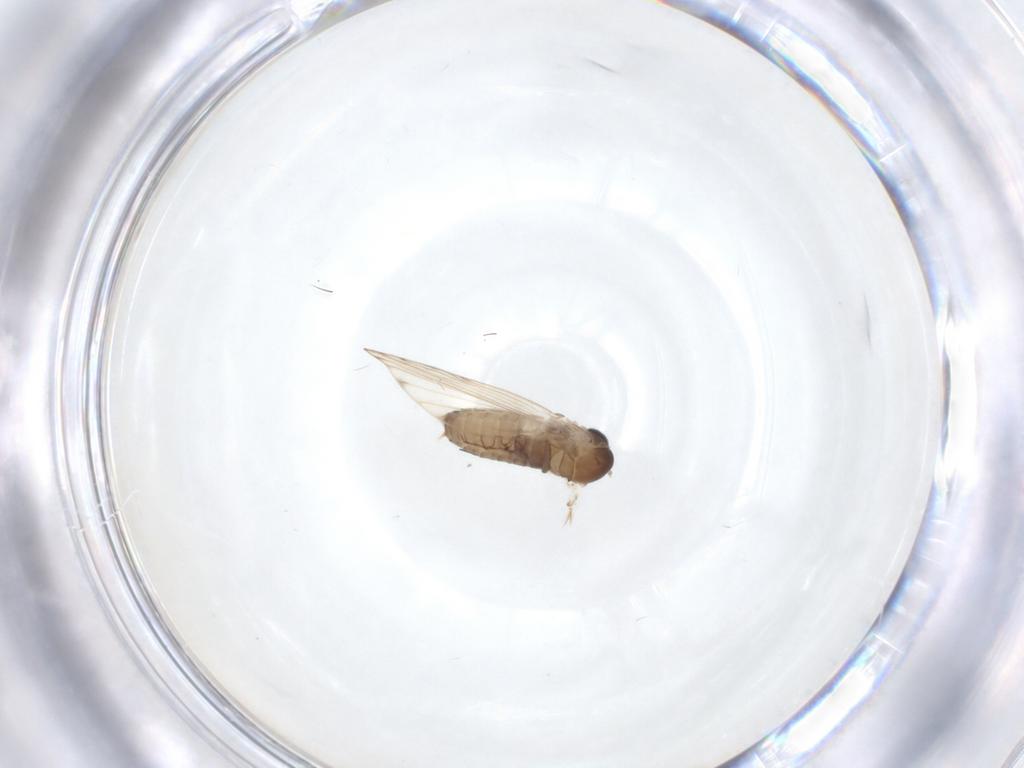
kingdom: Animalia
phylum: Arthropoda
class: Insecta
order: Diptera
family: Psychodidae
